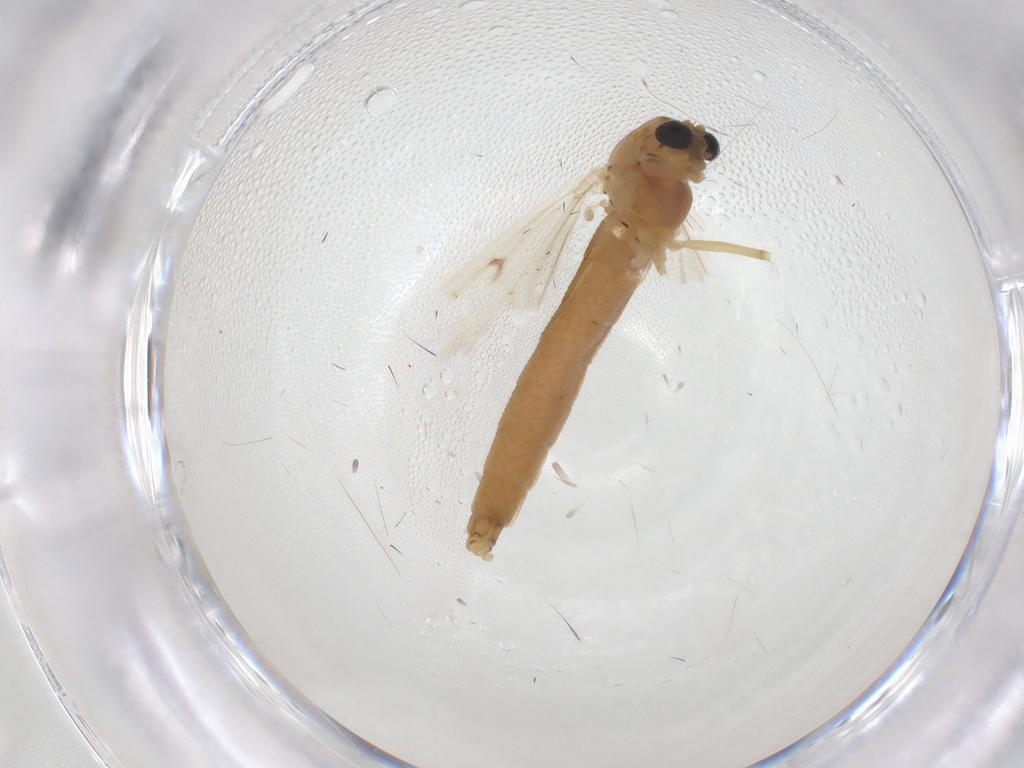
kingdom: Animalia
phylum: Arthropoda
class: Insecta
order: Diptera
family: Chironomidae
